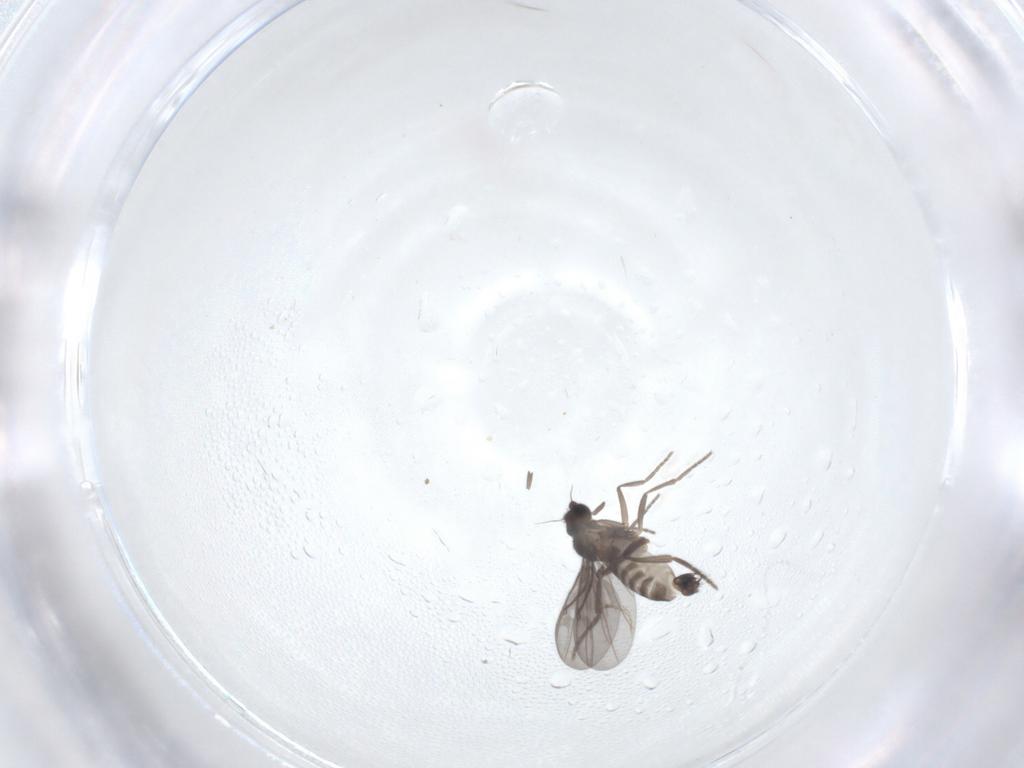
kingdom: Animalia
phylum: Arthropoda
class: Insecta
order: Diptera
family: Phoridae
